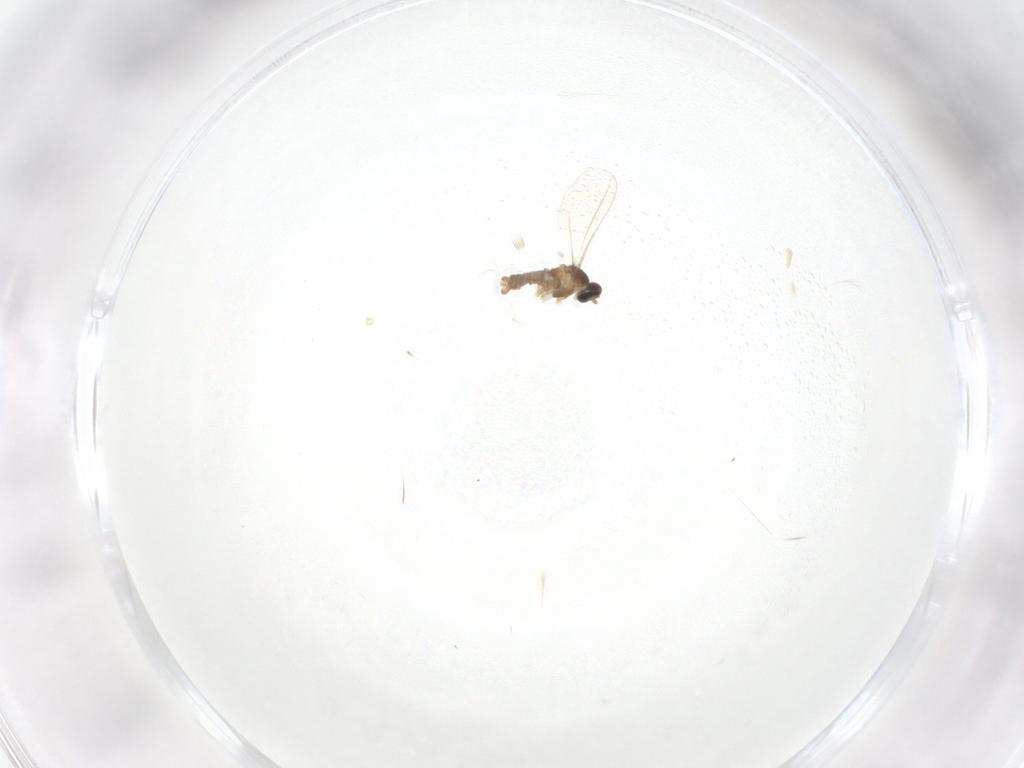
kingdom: Animalia
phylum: Arthropoda
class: Insecta
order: Diptera
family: Cecidomyiidae
